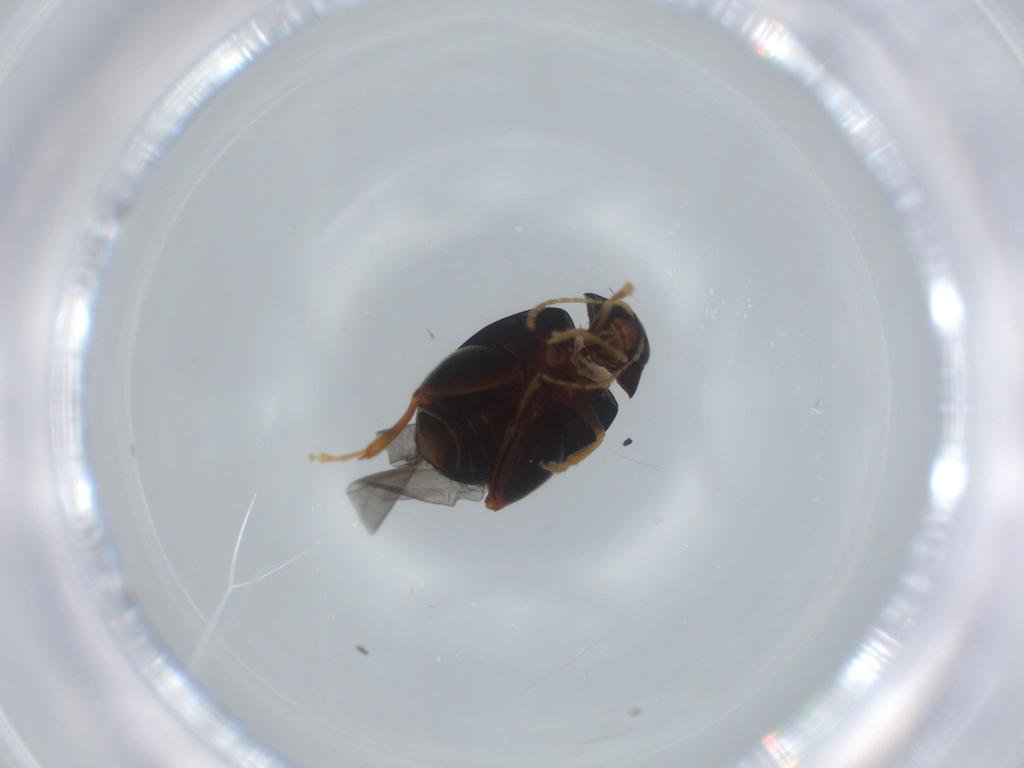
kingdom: Animalia
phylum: Arthropoda
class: Insecta
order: Coleoptera
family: Chrysomelidae
